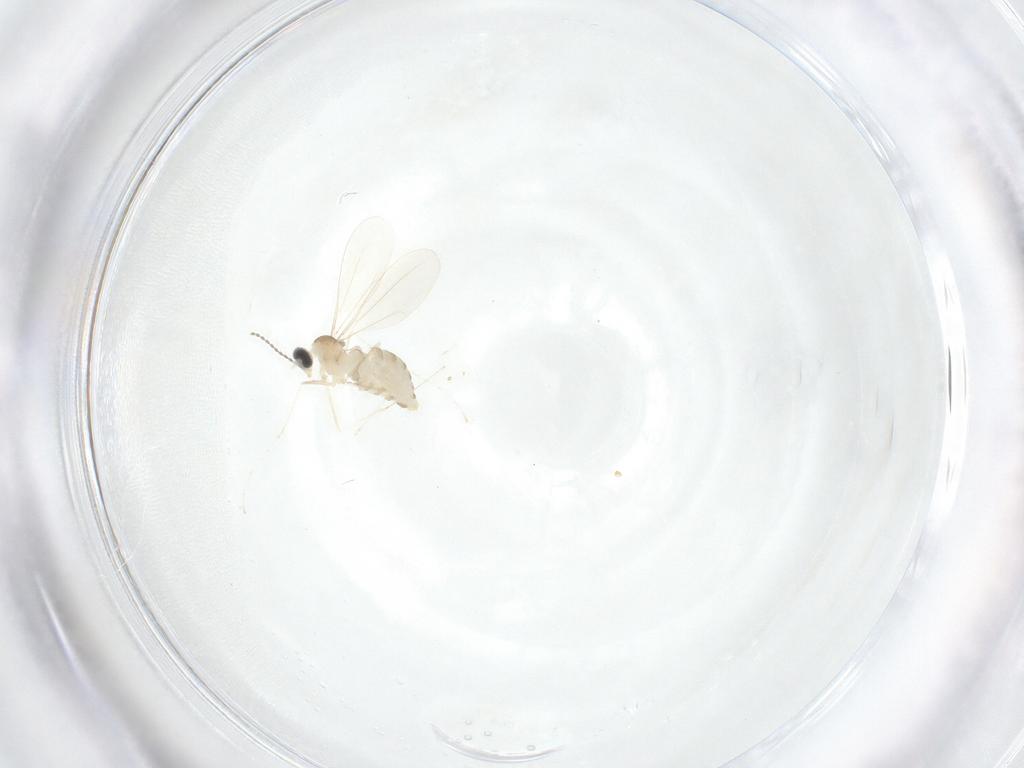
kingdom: Animalia
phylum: Arthropoda
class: Insecta
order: Diptera
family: Cecidomyiidae
